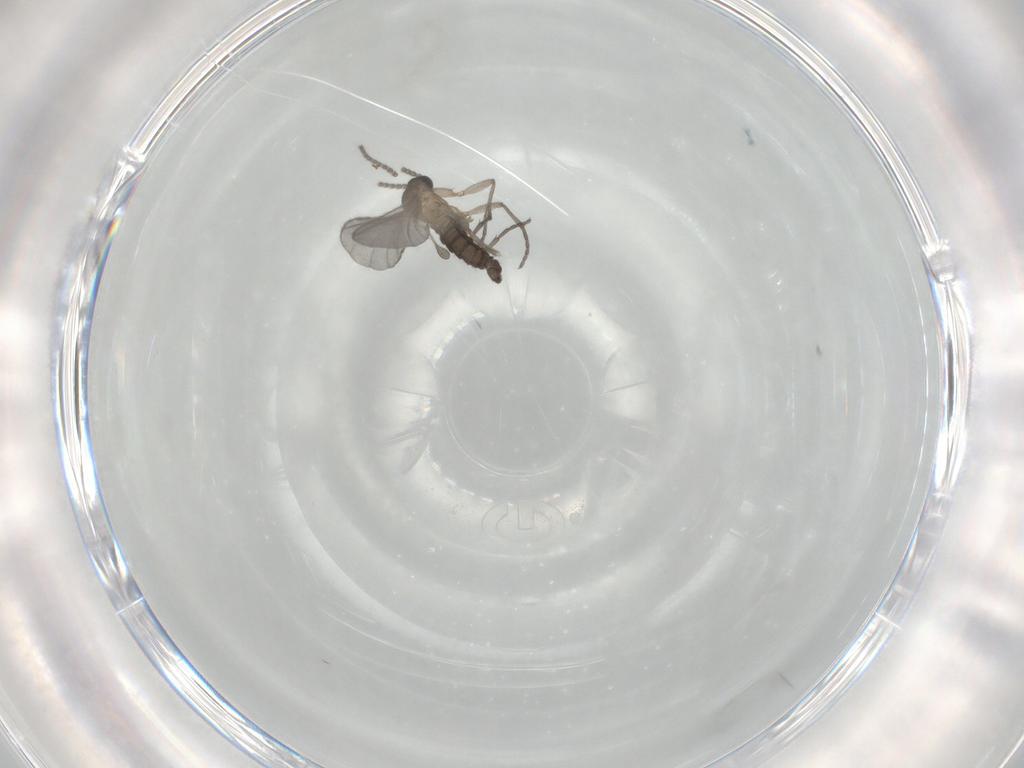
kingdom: Animalia
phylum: Arthropoda
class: Insecta
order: Diptera
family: Sciaridae
